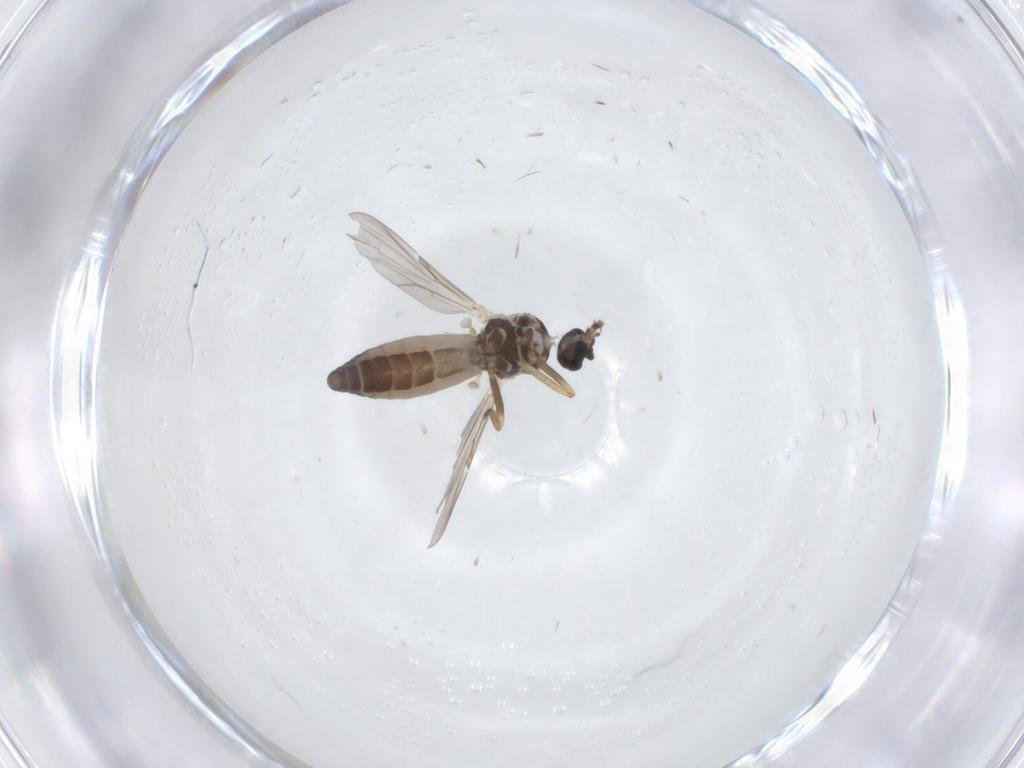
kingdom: Animalia
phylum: Arthropoda
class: Insecta
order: Diptera
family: Ceratopogonidae
